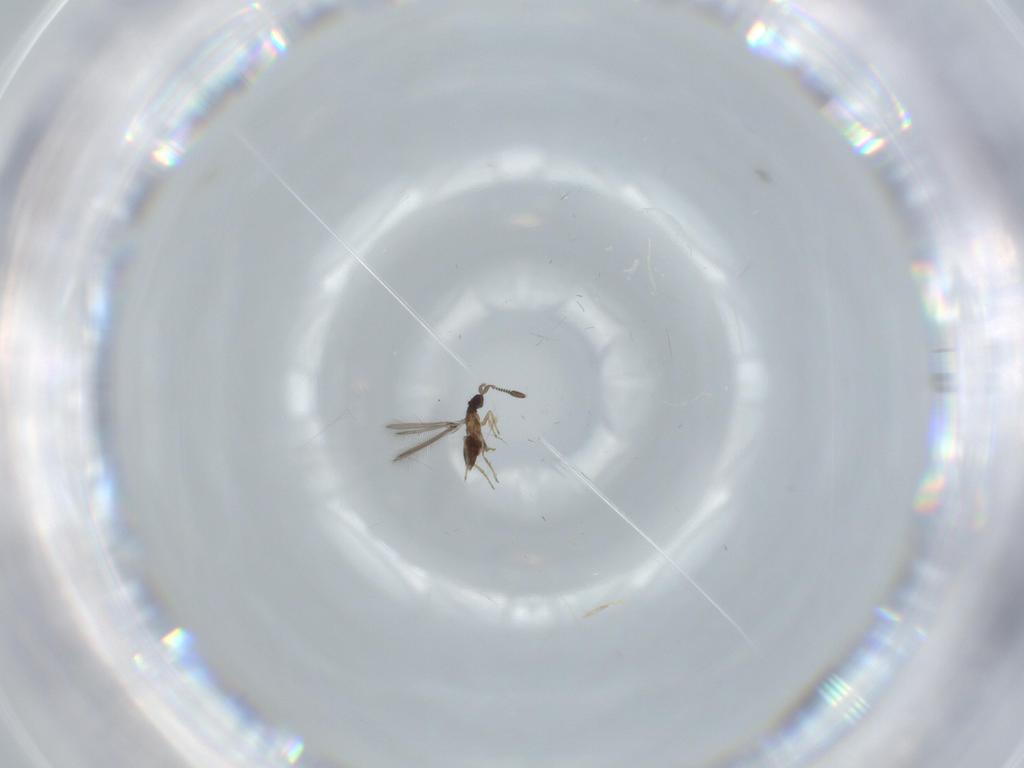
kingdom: Animalia
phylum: Arthropoda
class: Insecta
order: Hymenoptera
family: Mymaridae
